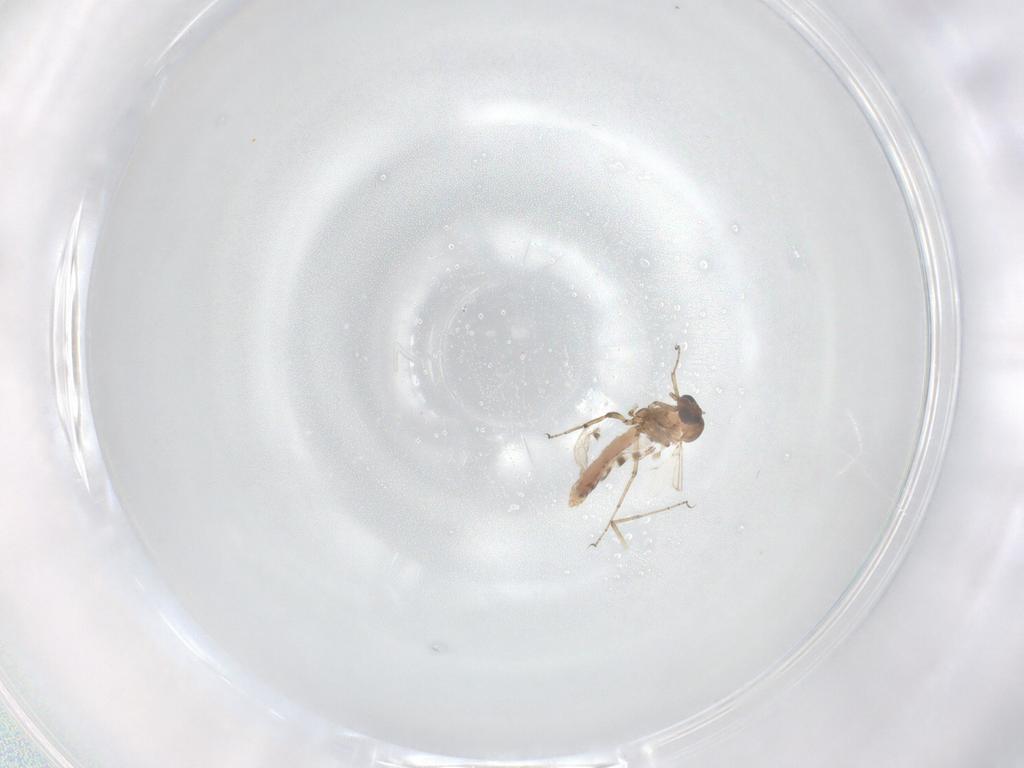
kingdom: Animalia
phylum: Arthropoda
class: Insecta
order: Diptera
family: Ceratopogonidae
